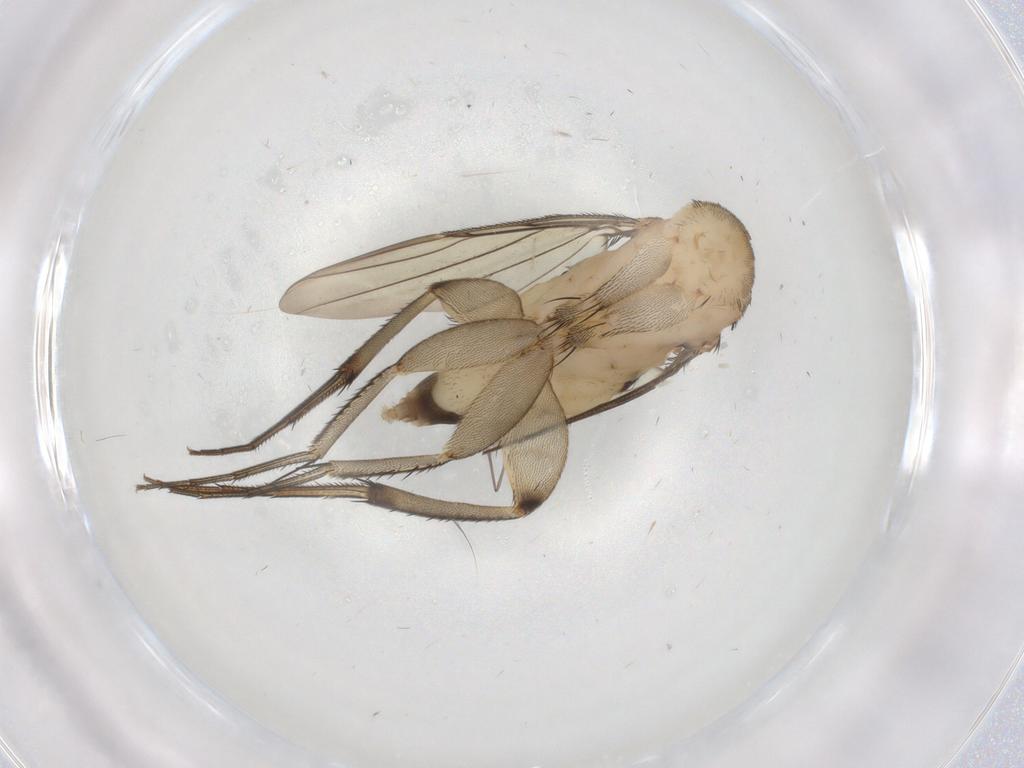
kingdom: Animalia
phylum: Arthropoda
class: Insecta
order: Diptera
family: Phoridae
